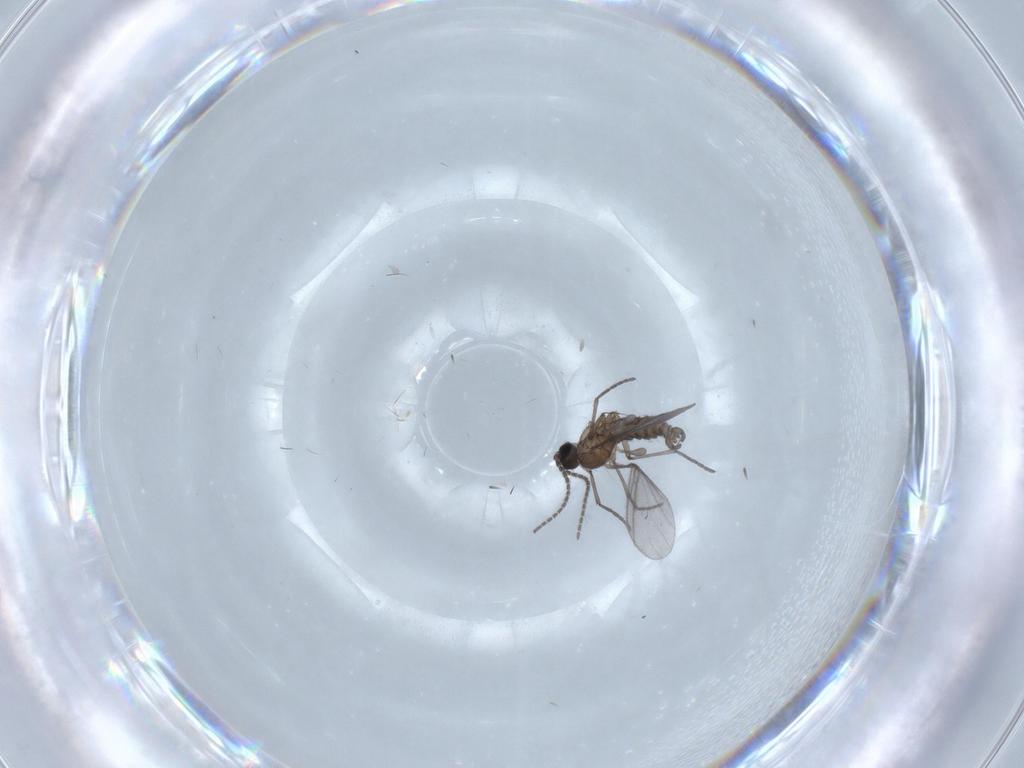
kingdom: Animalia
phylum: Arthropoda
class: Insecta
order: Diptera
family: Sciaridae
